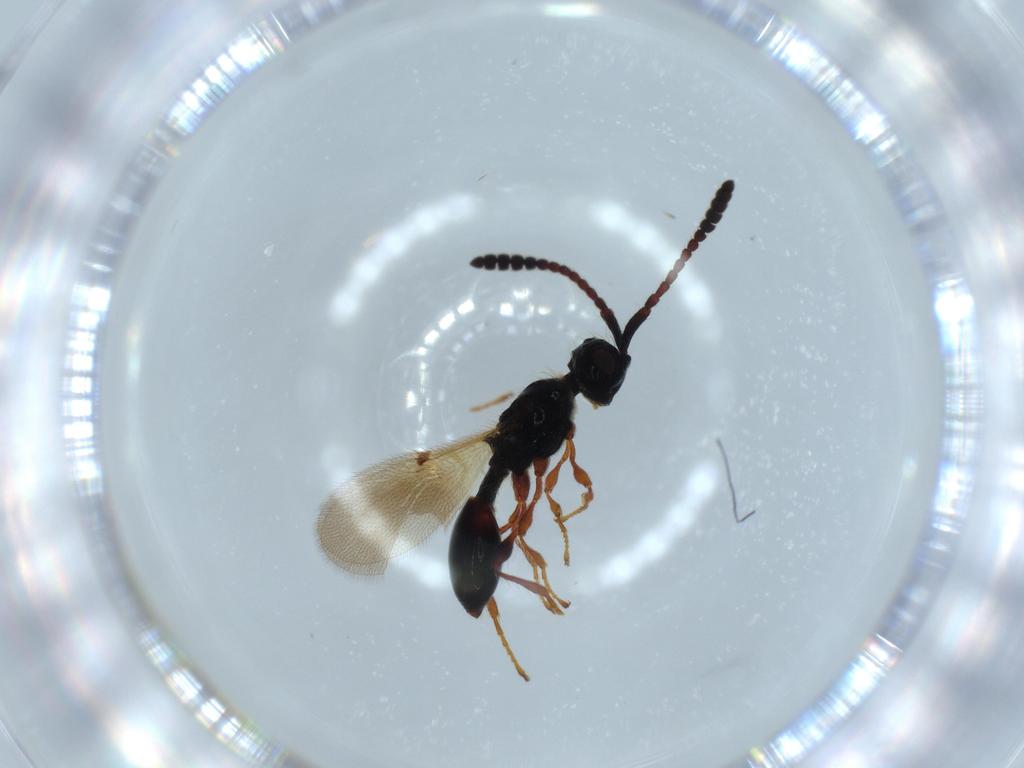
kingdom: Animalia
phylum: Arthropoda
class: Insecta
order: Hymenoptera
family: Diapriidae
